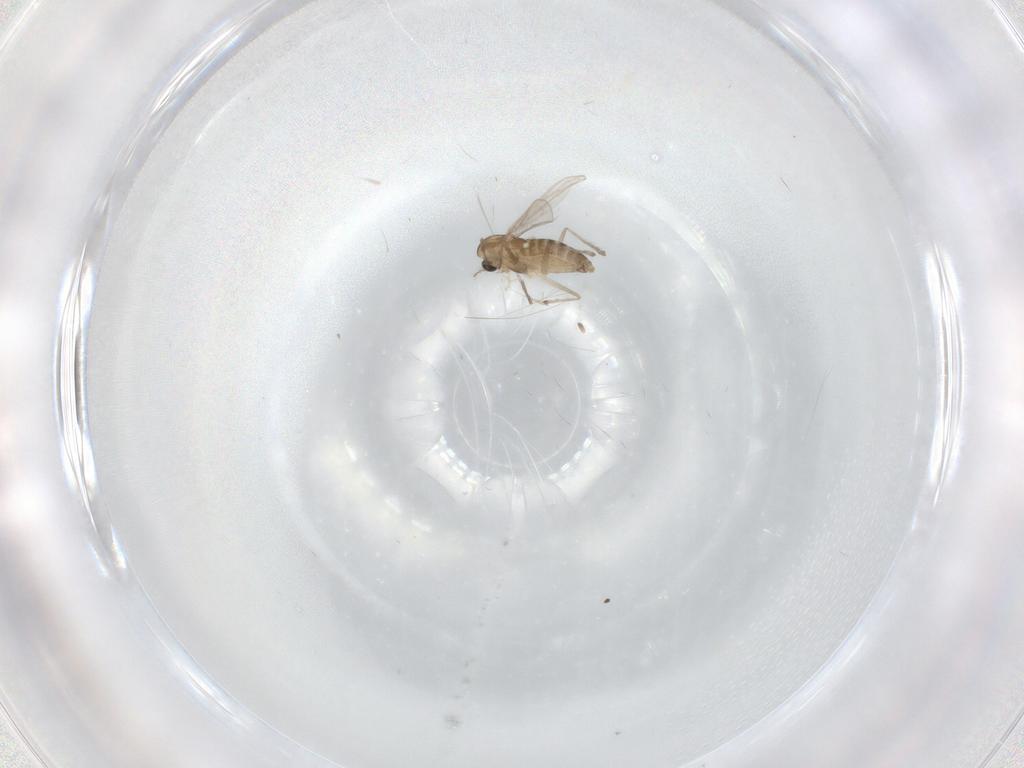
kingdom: Animalia
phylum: Arthropoda
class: Insecta
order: Diptera
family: Chironomidae
